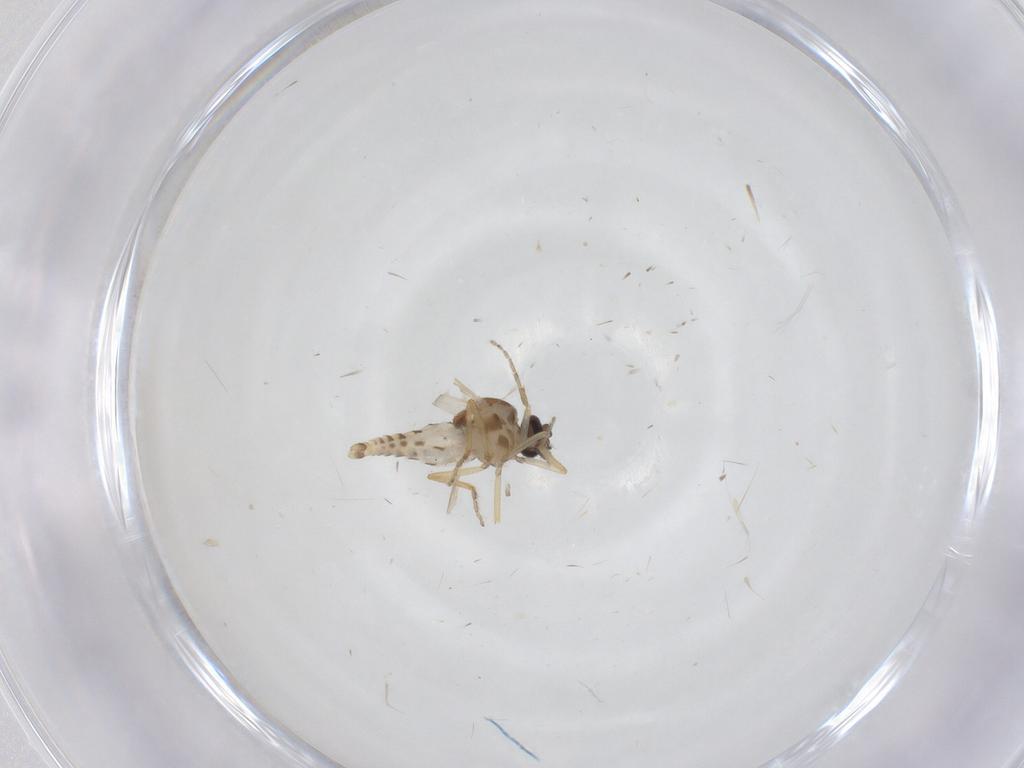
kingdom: Animalia
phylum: Arthropoda
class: Insecta
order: Diptera
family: Ceratopogonidae
